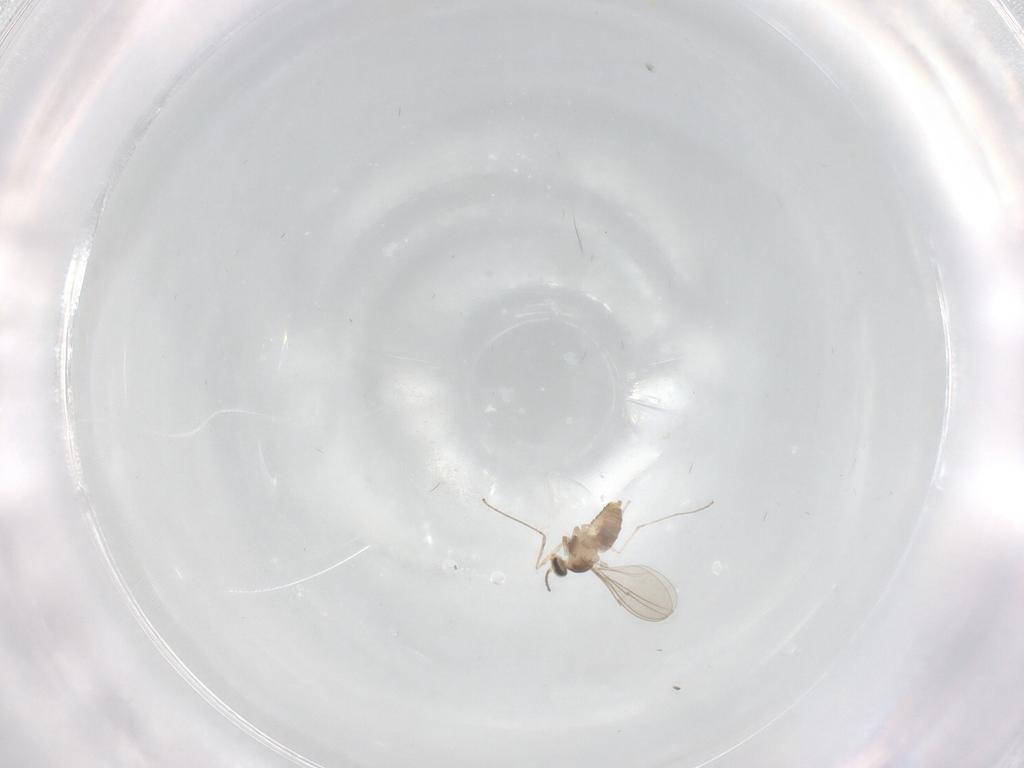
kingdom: Animalia
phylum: Arthropoda
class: Insecta
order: Diptera
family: Cecidomyiidae
